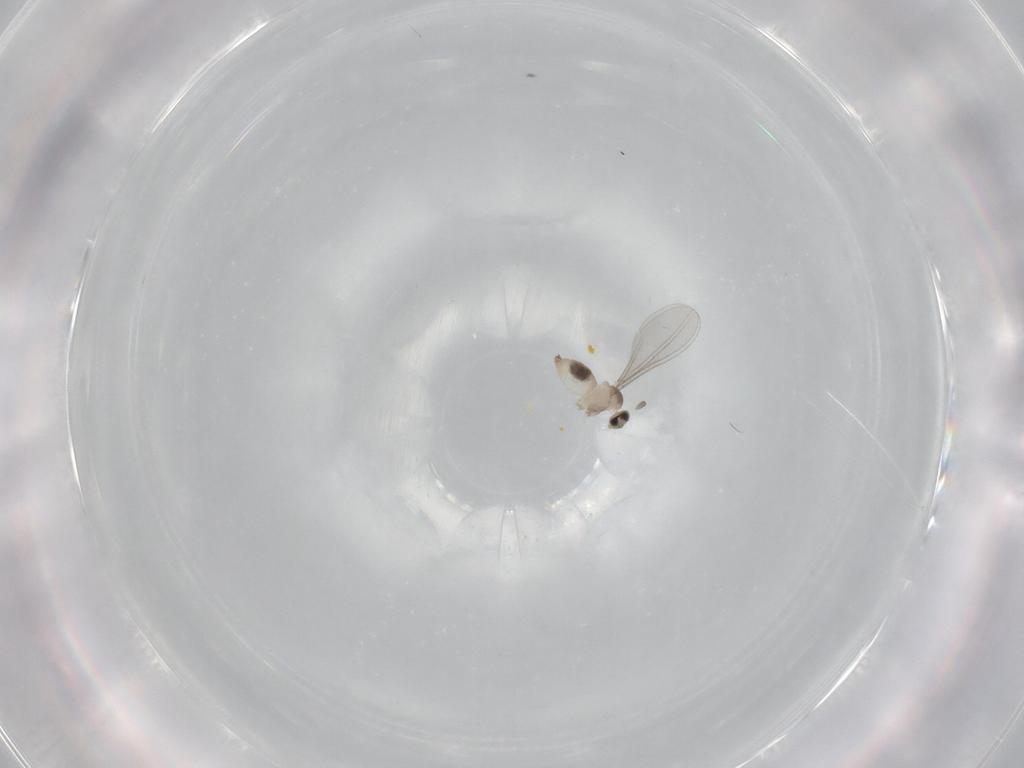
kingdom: Animalia
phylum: Arthropoda
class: Insecta
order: Diptera
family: Cecidomyiidae
